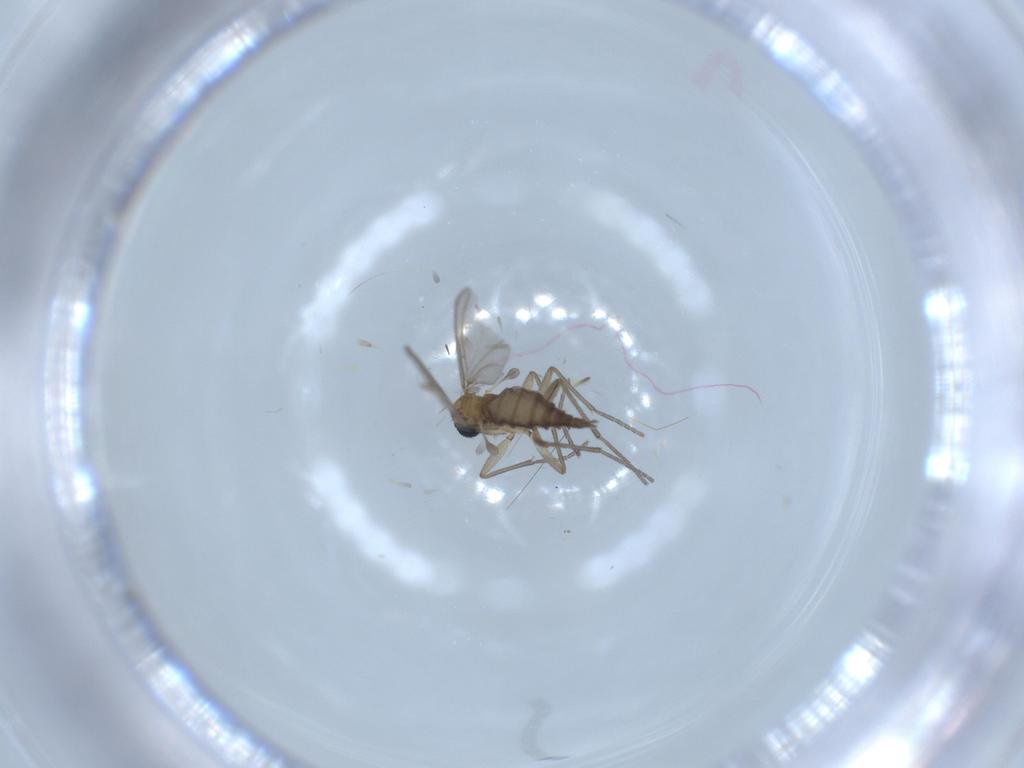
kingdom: Animalia
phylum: Arthropoda
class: Insecta
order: Diptera
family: Sciaridae
